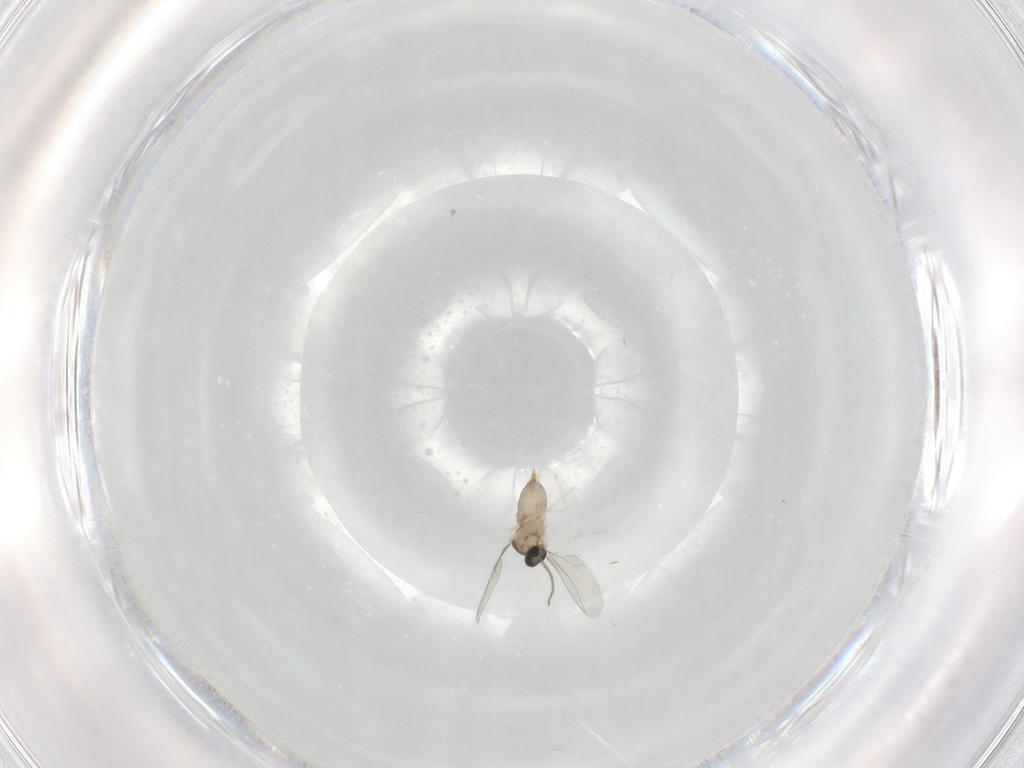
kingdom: Animalia
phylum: Arthropoda
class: Insecta
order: Diptera
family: Cecidomyiidae
